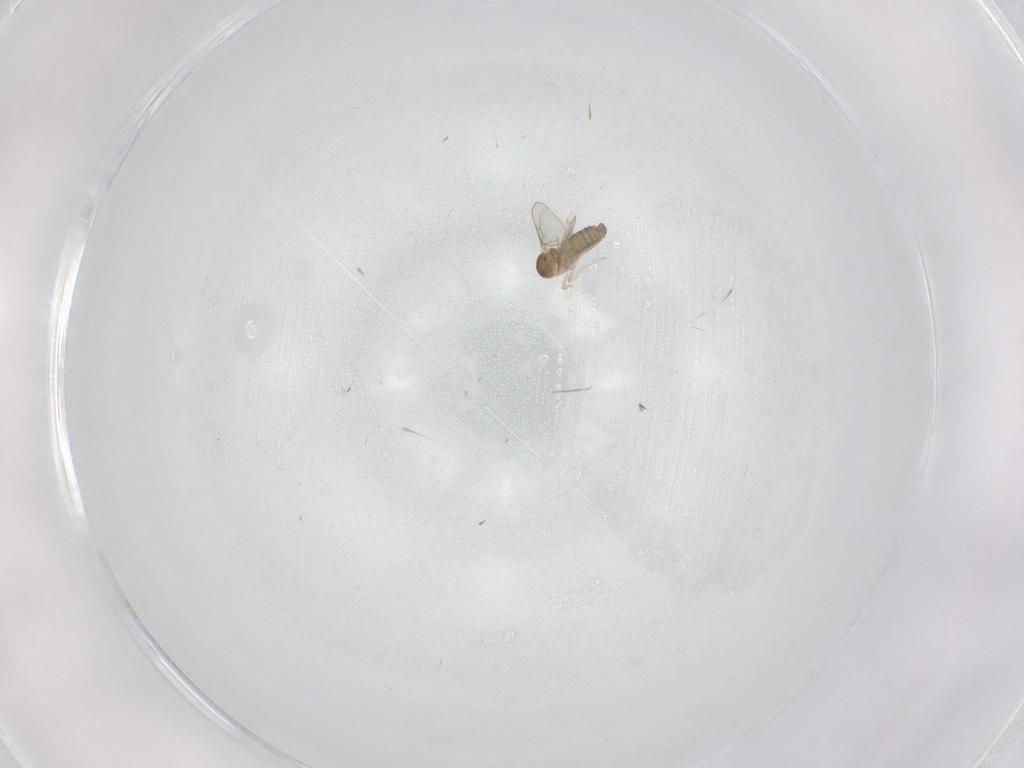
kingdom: Animalia
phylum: Arthropoda
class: Insecta
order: Diptera
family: Cecidomyiidae
